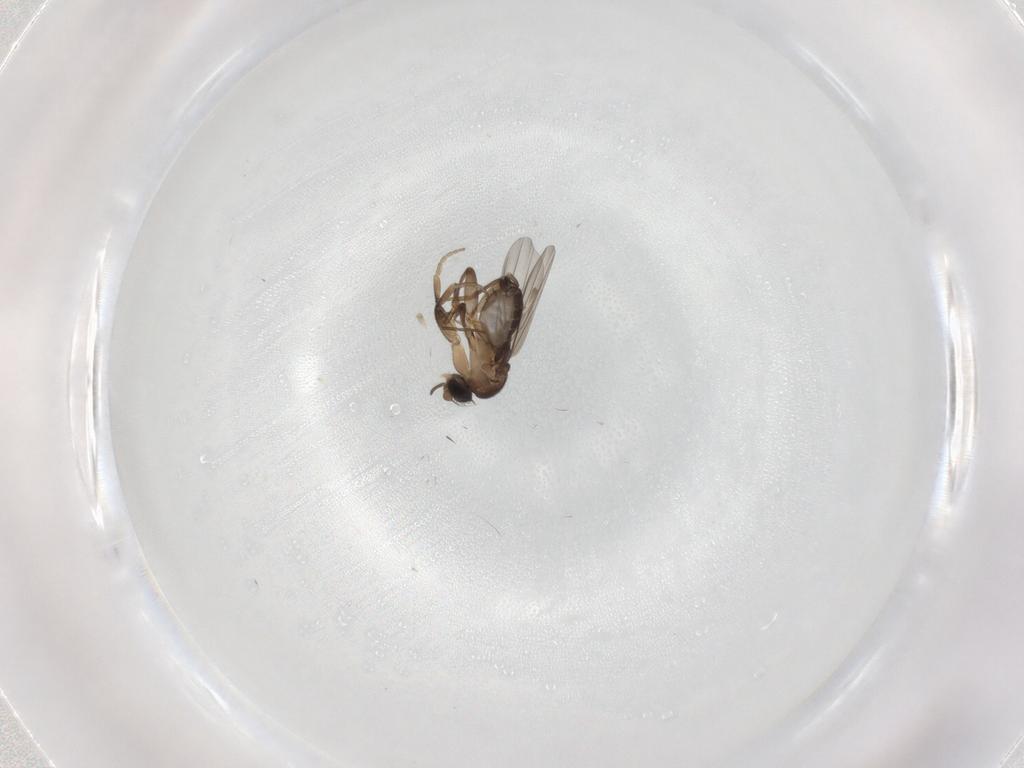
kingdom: Animalia
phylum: Arthropoda
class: Insecta
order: Diptera
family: Phoridae
